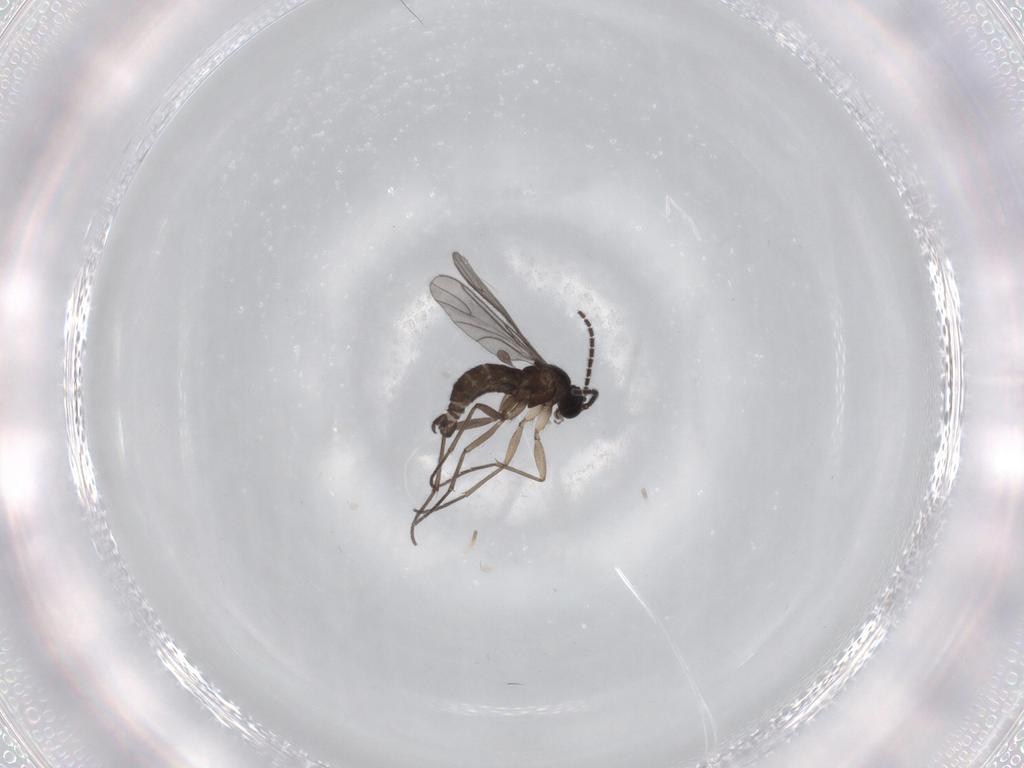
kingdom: Animalia
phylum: Arthropoda
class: Insecta
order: Diptera
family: Sciaridae
